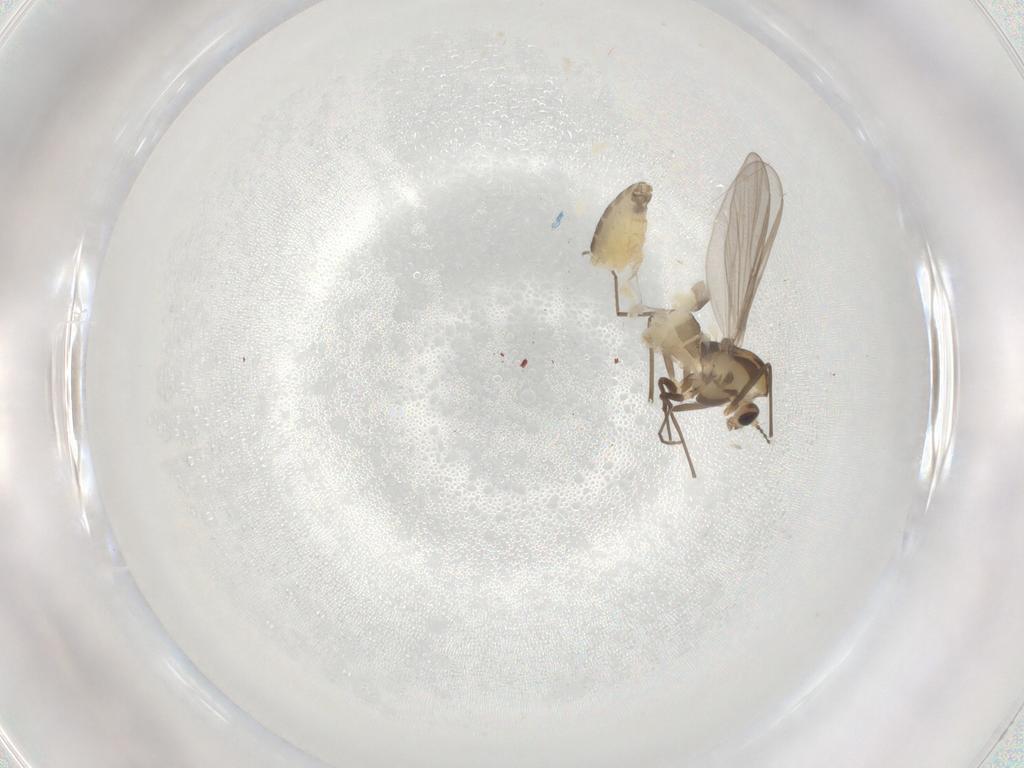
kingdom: Animalia
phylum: Arthropoda
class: Insecta
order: Diptera
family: Chironomidae
